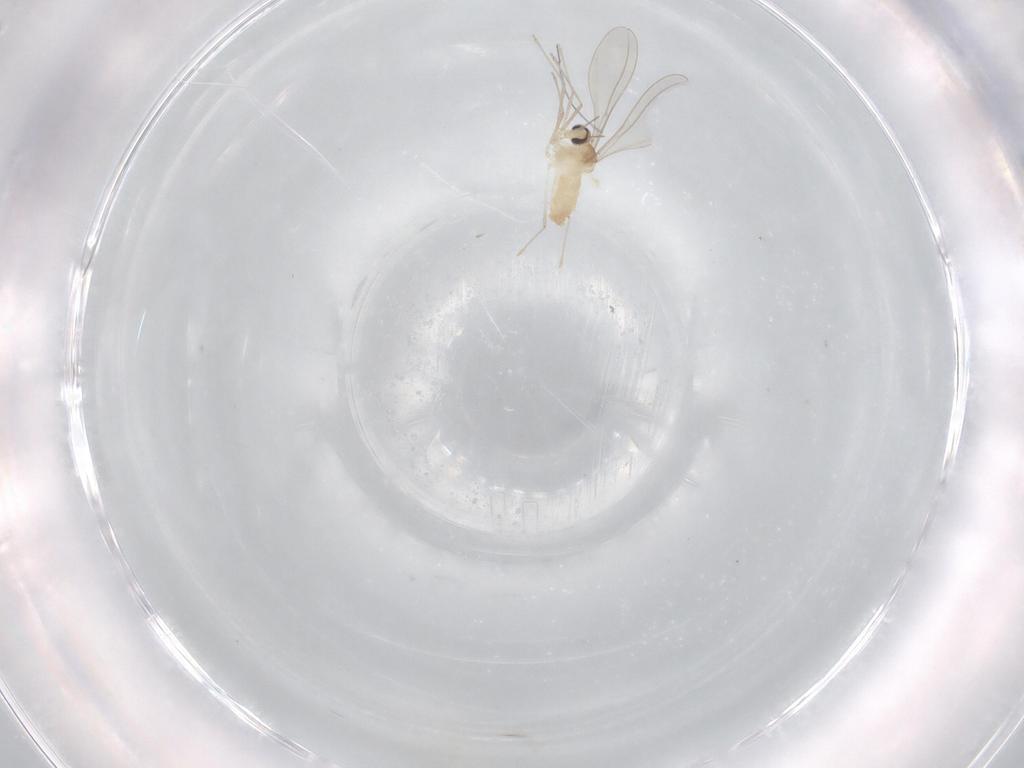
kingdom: Animalia
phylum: Arthropoda
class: Insecta
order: Diptera
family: Cecidomyiidae
